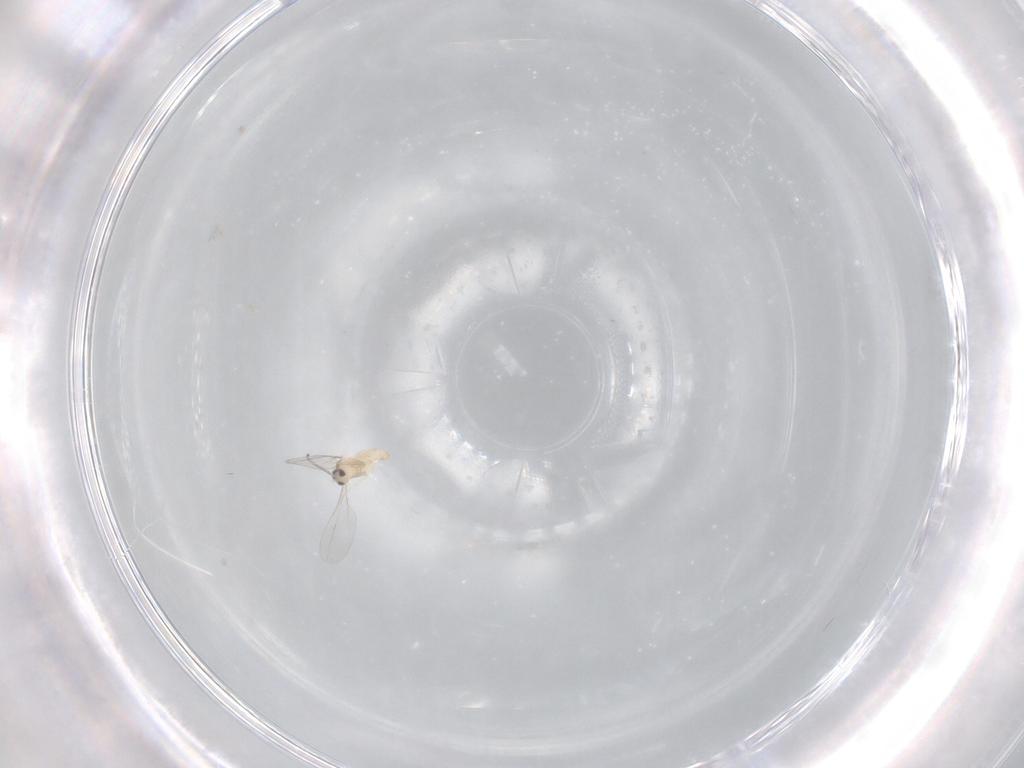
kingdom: Animalia
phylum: Arthropoda
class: Insecta
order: Diptera
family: Cecidomyiidae
